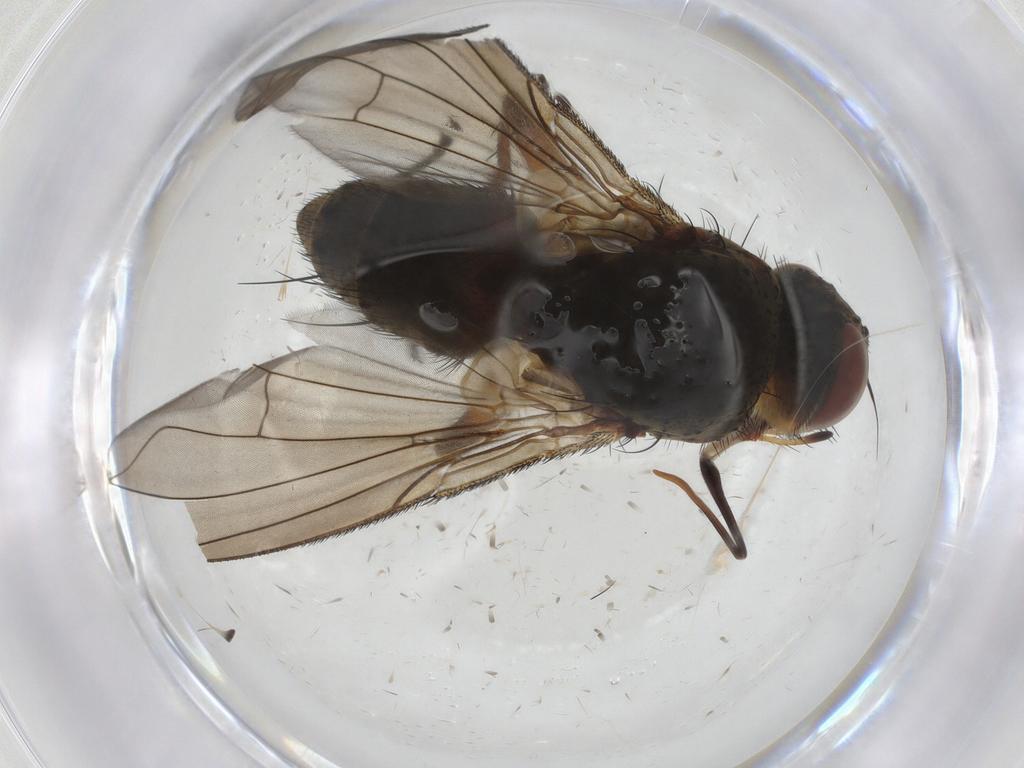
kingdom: Animalia
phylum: Arthropoda
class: Insecta
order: Diptera
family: Tachinidae
